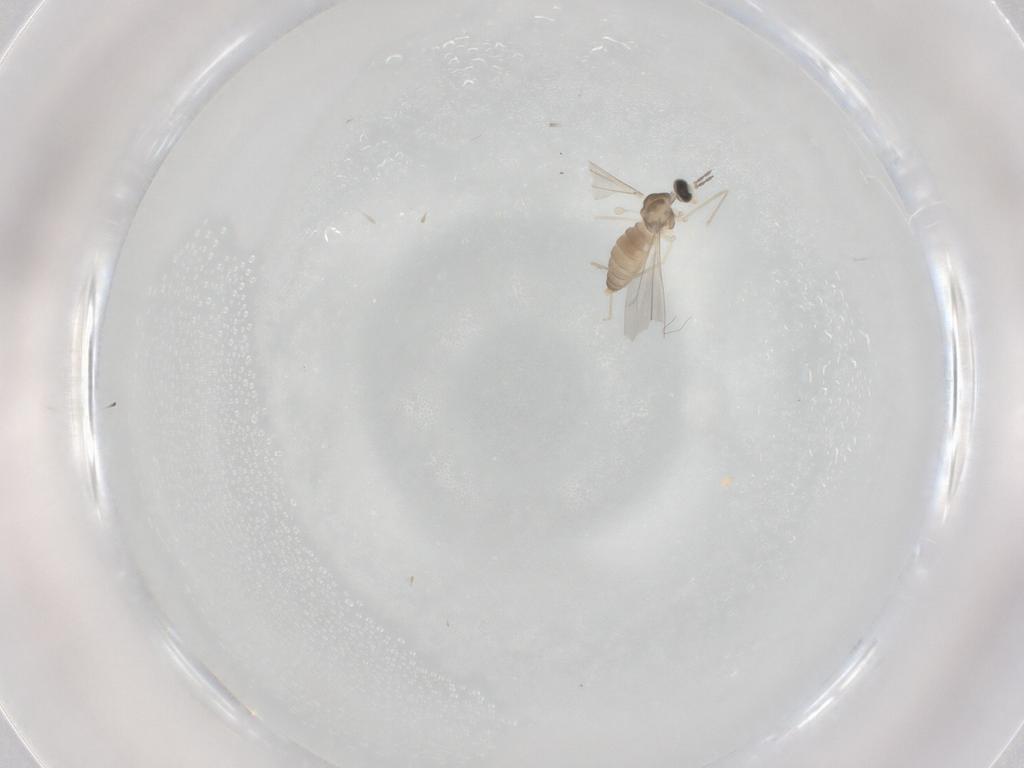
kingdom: Animalia
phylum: Arthropoda
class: Insecta
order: Diptera
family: Cecidomyiidae
